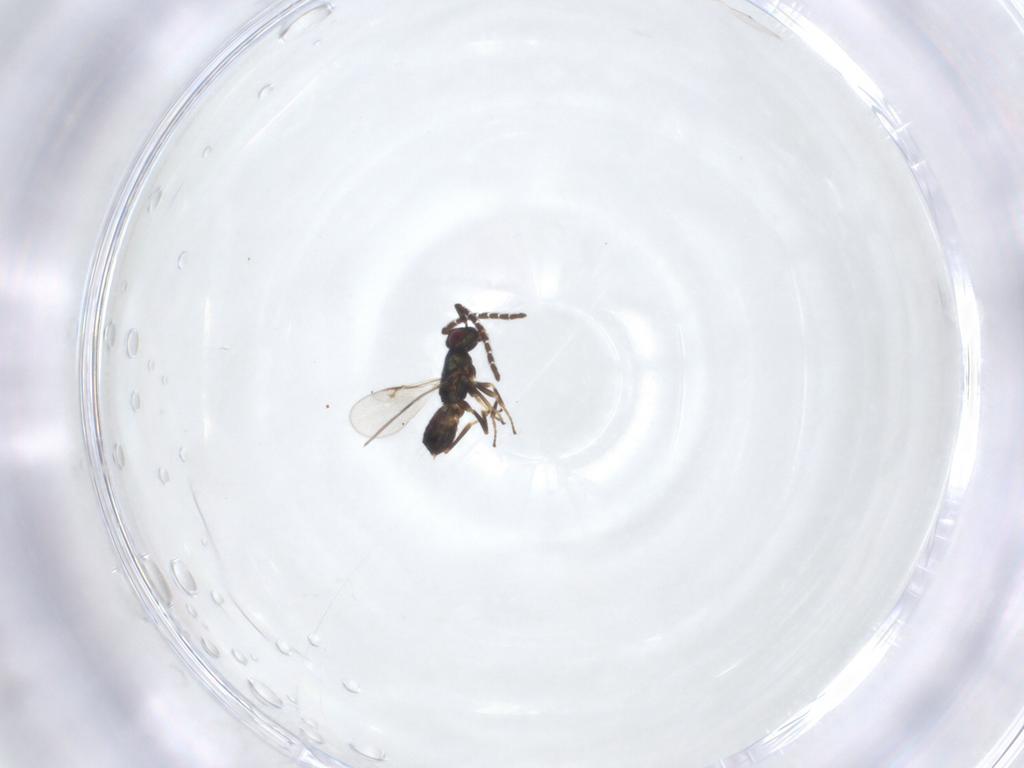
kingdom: Animalia
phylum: Arthropoda
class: Insecta
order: Hymenoptera
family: Encyrtidae
